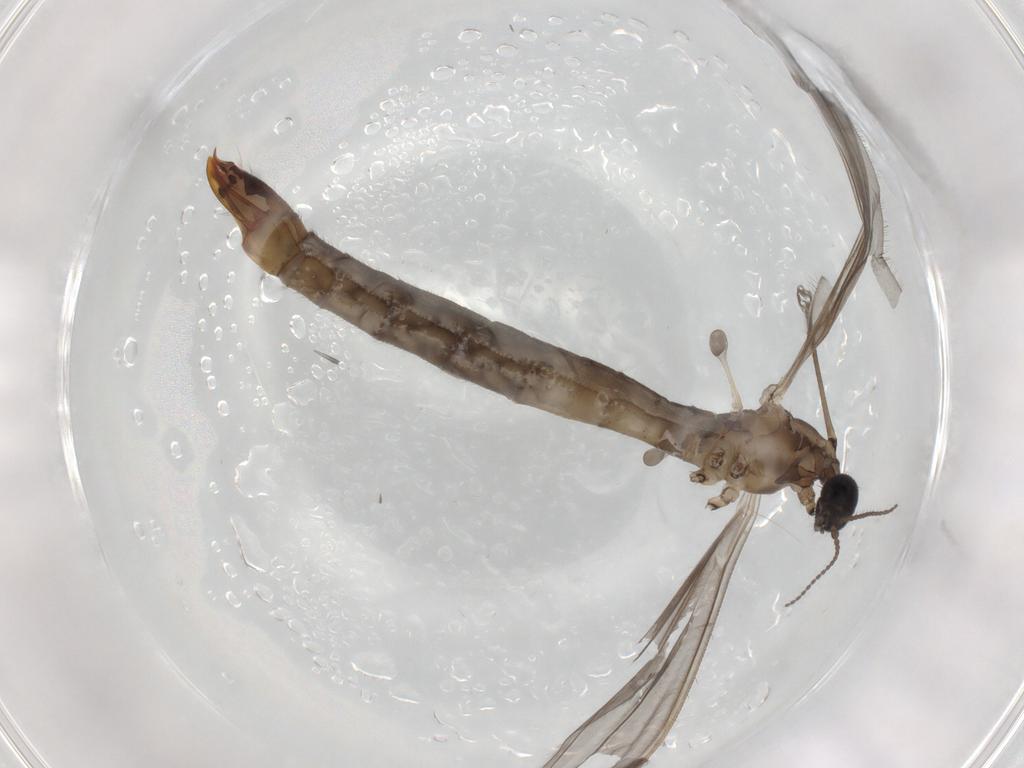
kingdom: Animalia
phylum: Arthropoda
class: Insecta
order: Diptera
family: Limoniidae
